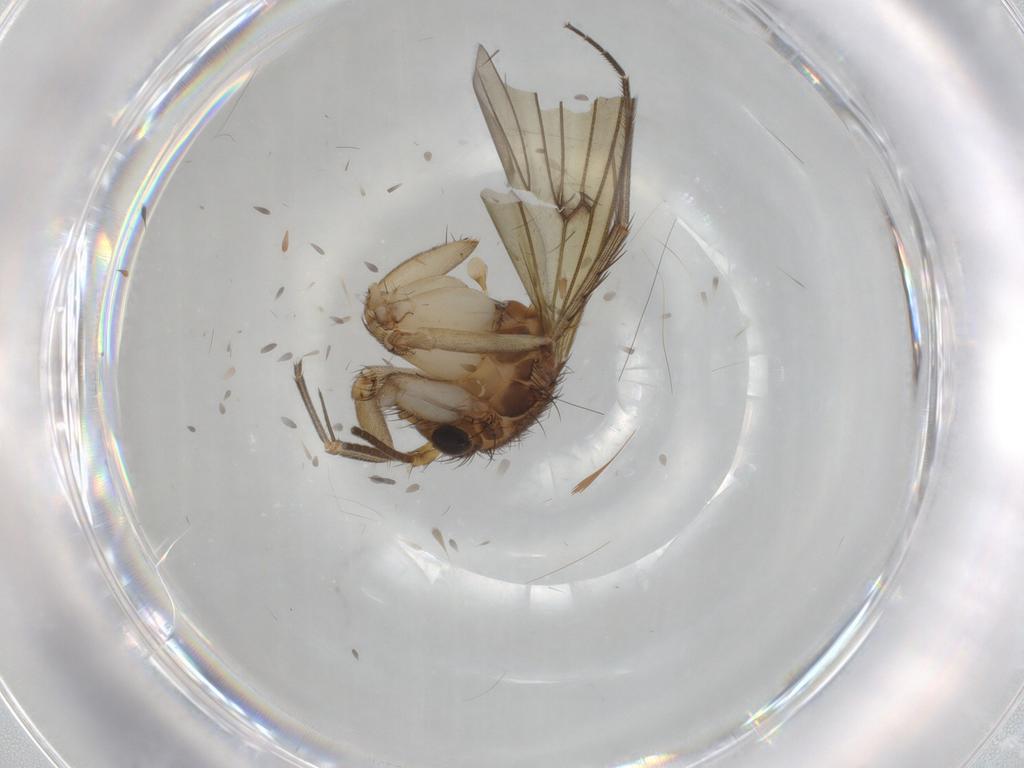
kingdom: Animalia
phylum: Arthropoda
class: Insecta
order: Diptera
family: Mycetophilidae
